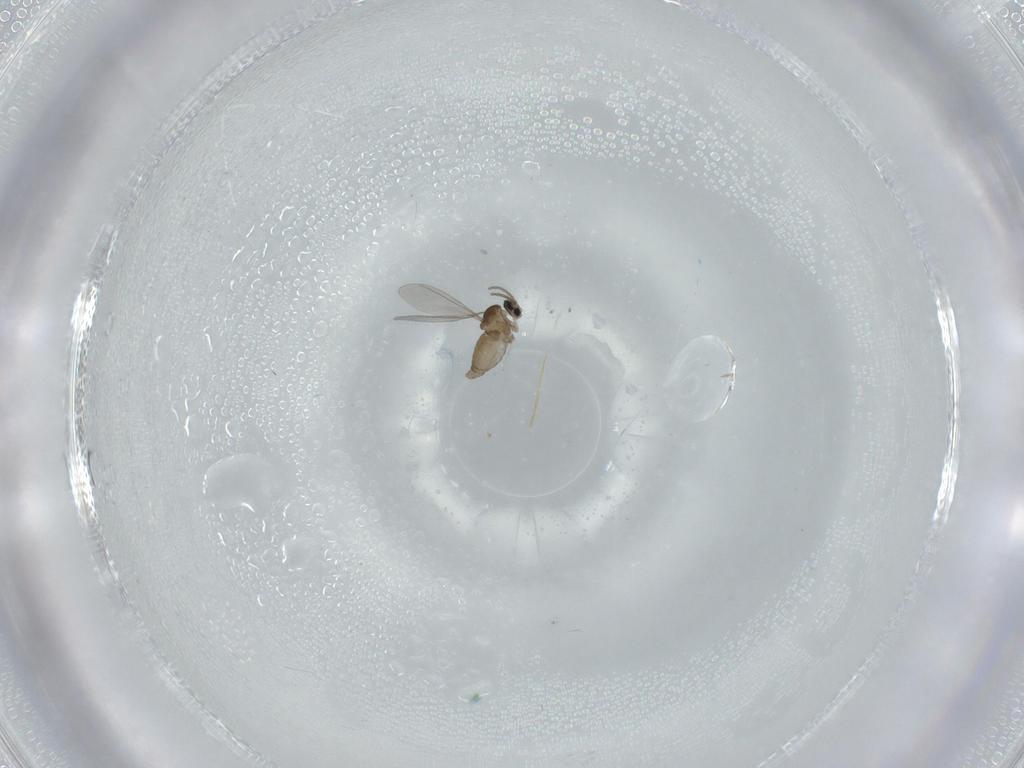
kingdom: Animalia
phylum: Arthropoda
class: Insecta
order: Diptera
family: Cecidomyiidae
